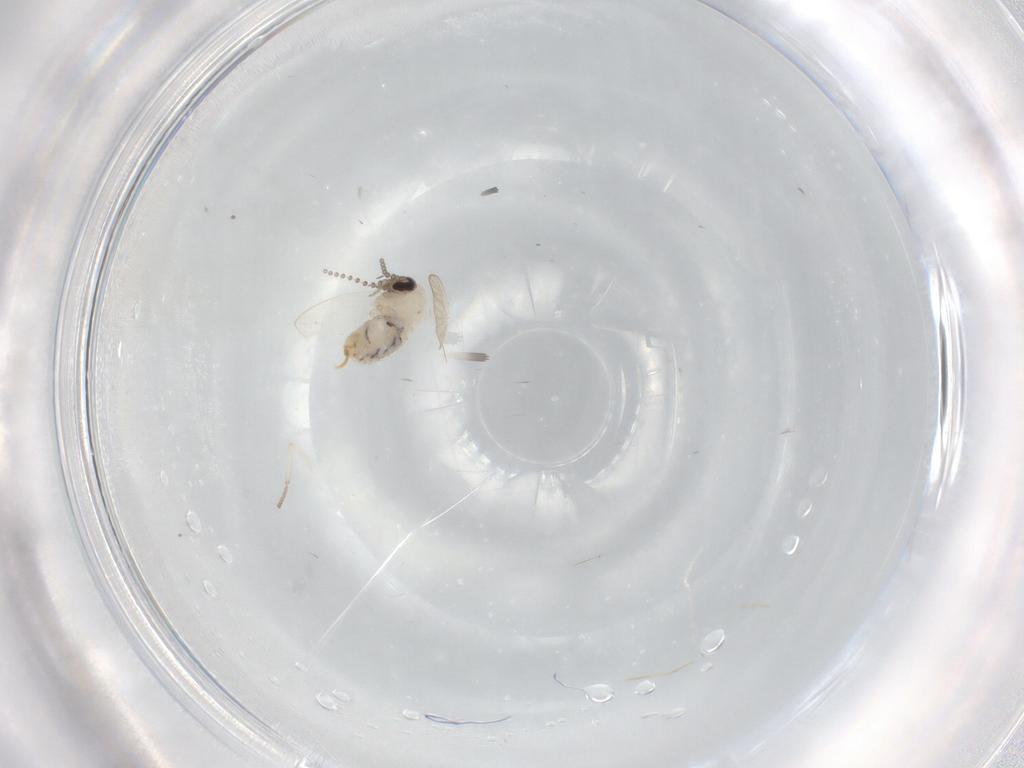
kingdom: Animalia
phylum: Arthropoda
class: Insecta
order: Diptera
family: Psychodidae
